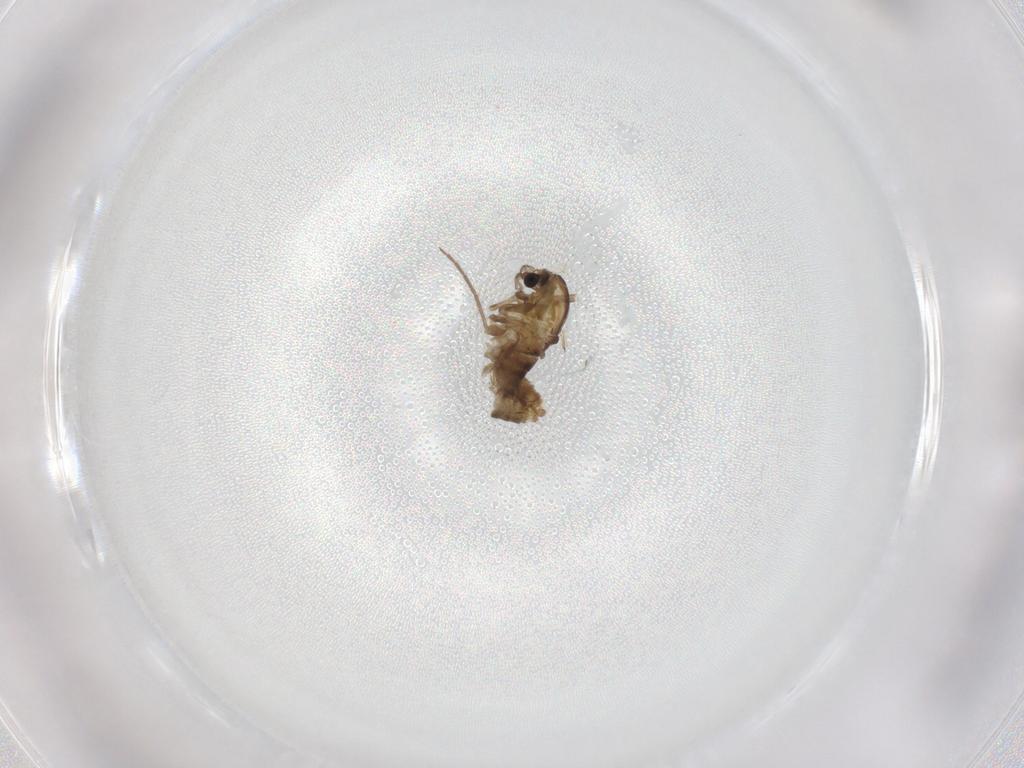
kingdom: Animalia
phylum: Arthropoda
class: Insecta
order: Diptera
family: Chironomidae
